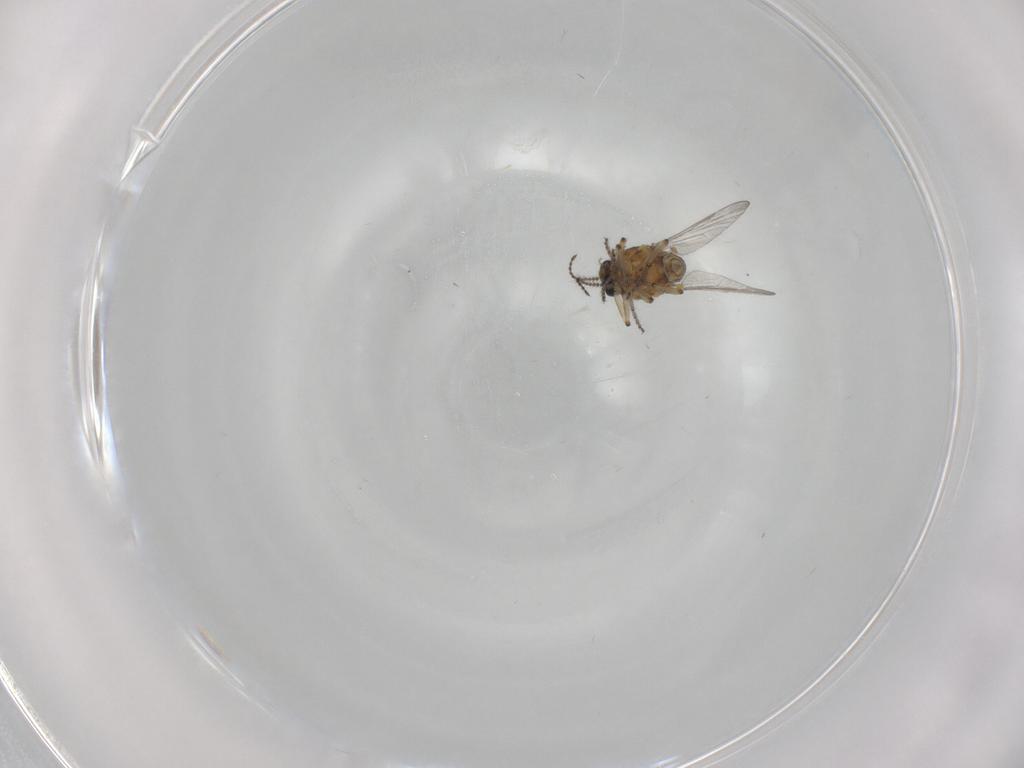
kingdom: Animalia
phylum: Arthropoda
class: Insecta
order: Diptera
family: Ceratopogonidae
